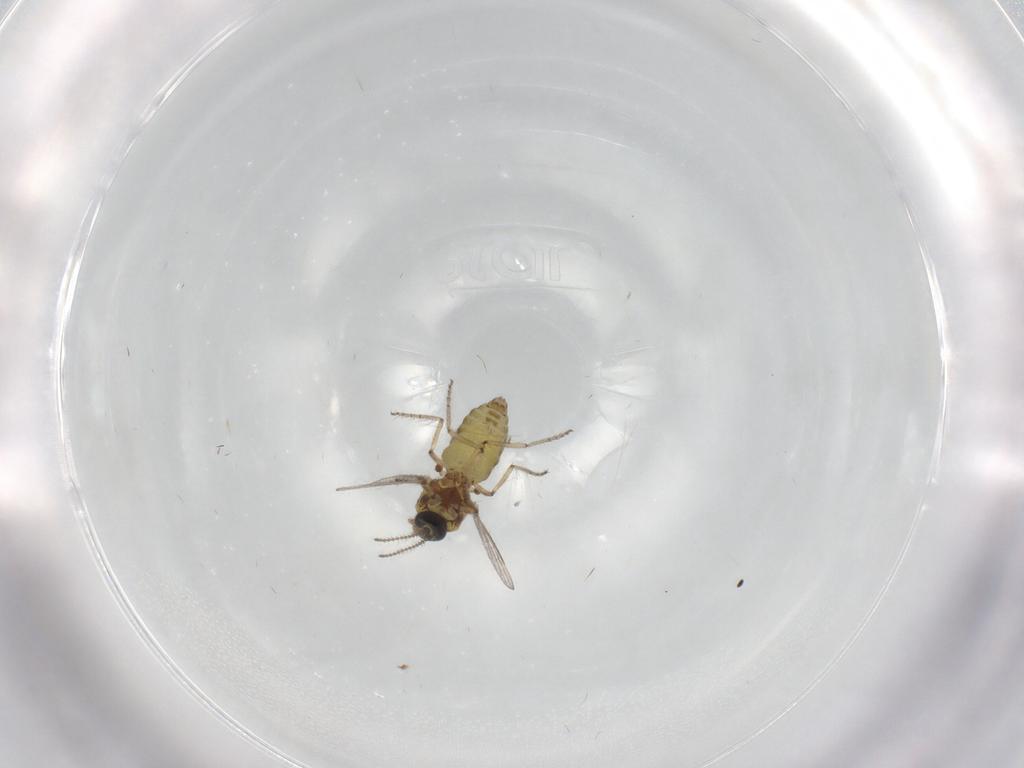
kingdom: Animalia
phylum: Arthropoda
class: Insecta
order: Diptera
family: Ceratopogonidae
